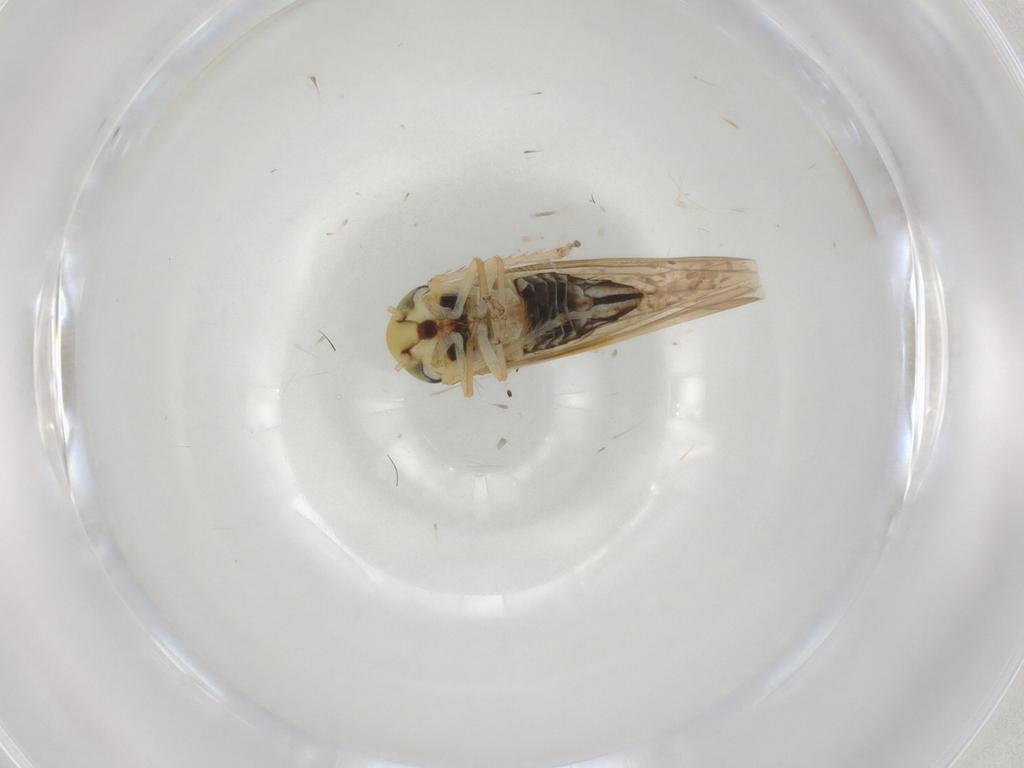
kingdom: Animalia
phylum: Arthropoda
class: Insecta
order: Hemiptera
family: Cicadellidae
